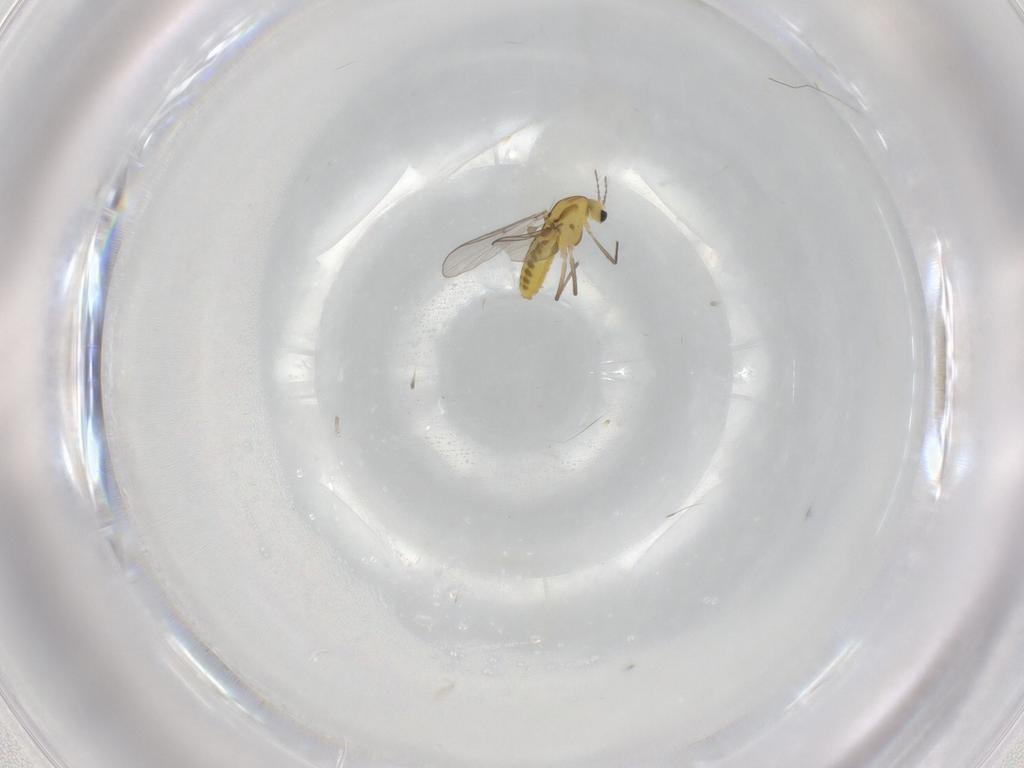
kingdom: Animalia
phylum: Arthropoda
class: Insecta
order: Diptera
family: Chironomidae
